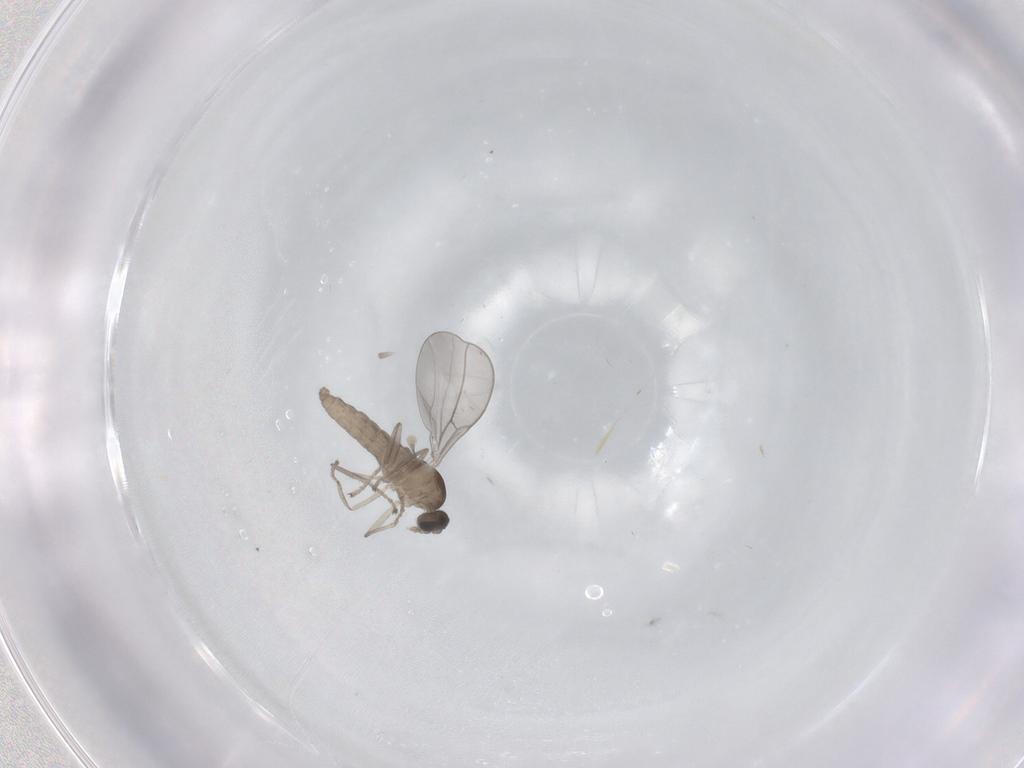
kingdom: Animalia
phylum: Arthropoda
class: Insecta
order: Diptera
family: Cecidomyiidae
